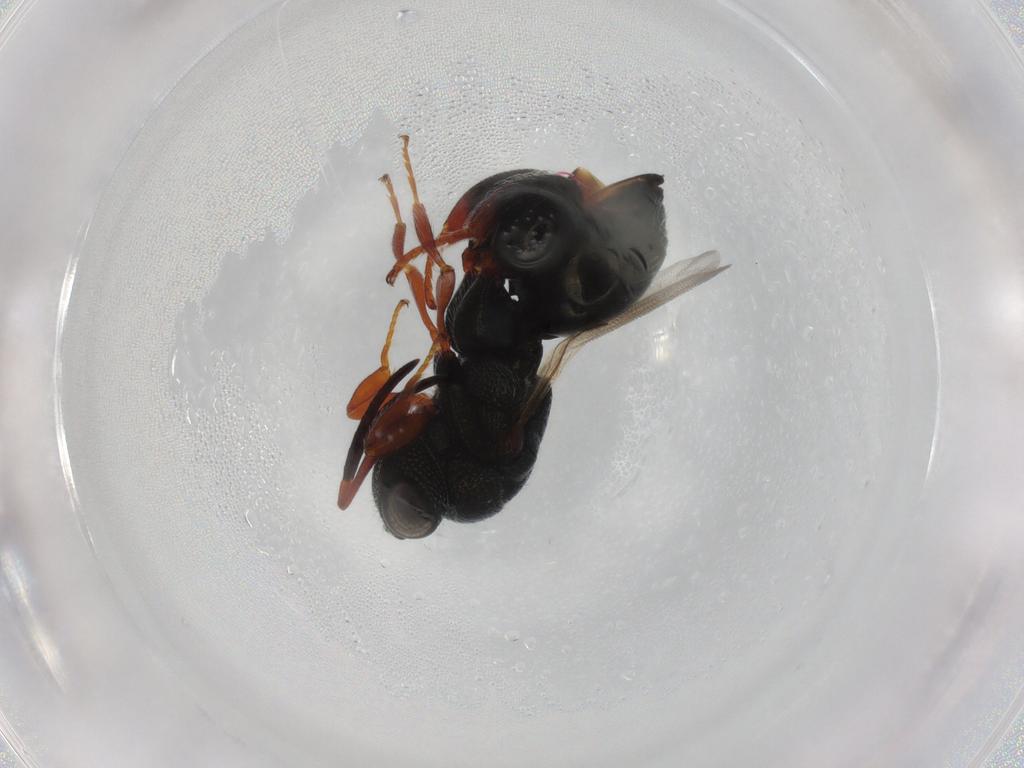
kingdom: Animalia
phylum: Arthropoda
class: Insecta
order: Hymenoptera
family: Chalcididae
